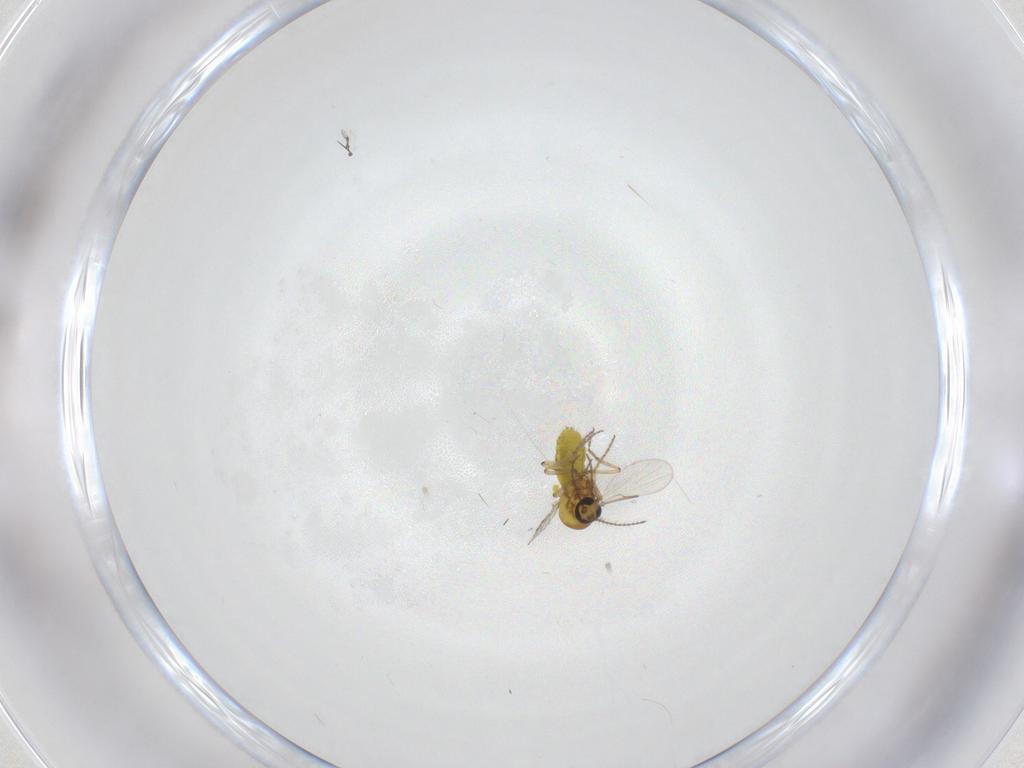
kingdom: Animalia
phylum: Arthropoda
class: Insecta
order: Diptera
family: Ceratopogonidae
